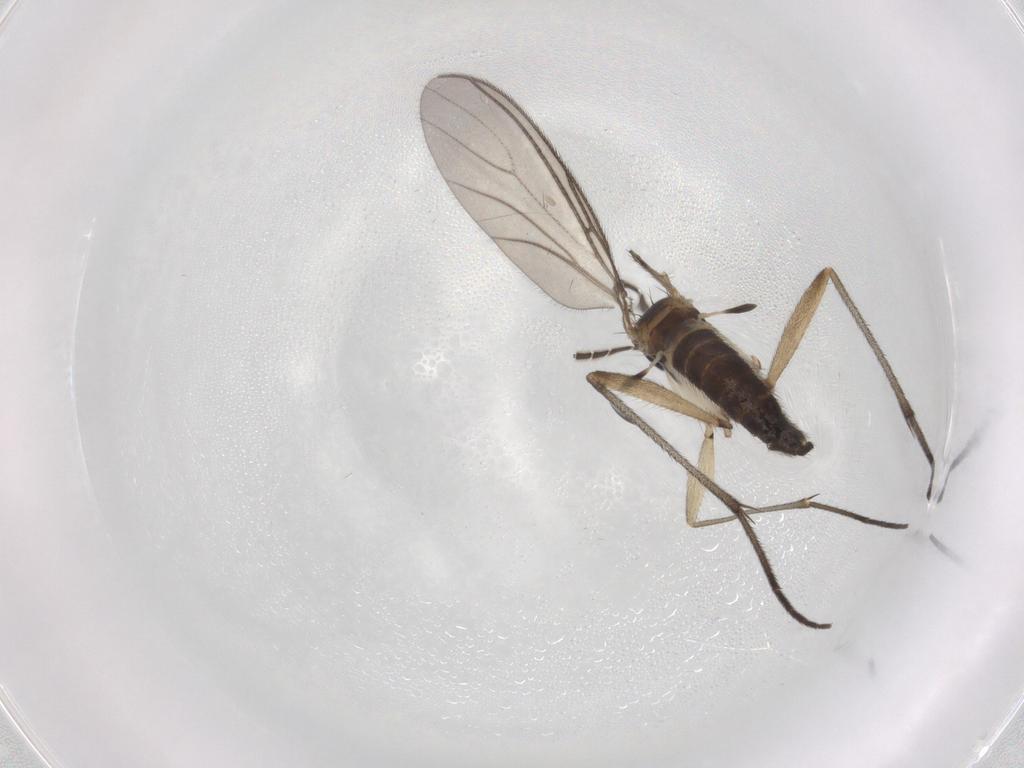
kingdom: Animalia
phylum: Arthropoda
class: Insecta
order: Diptera
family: Sciaridae
